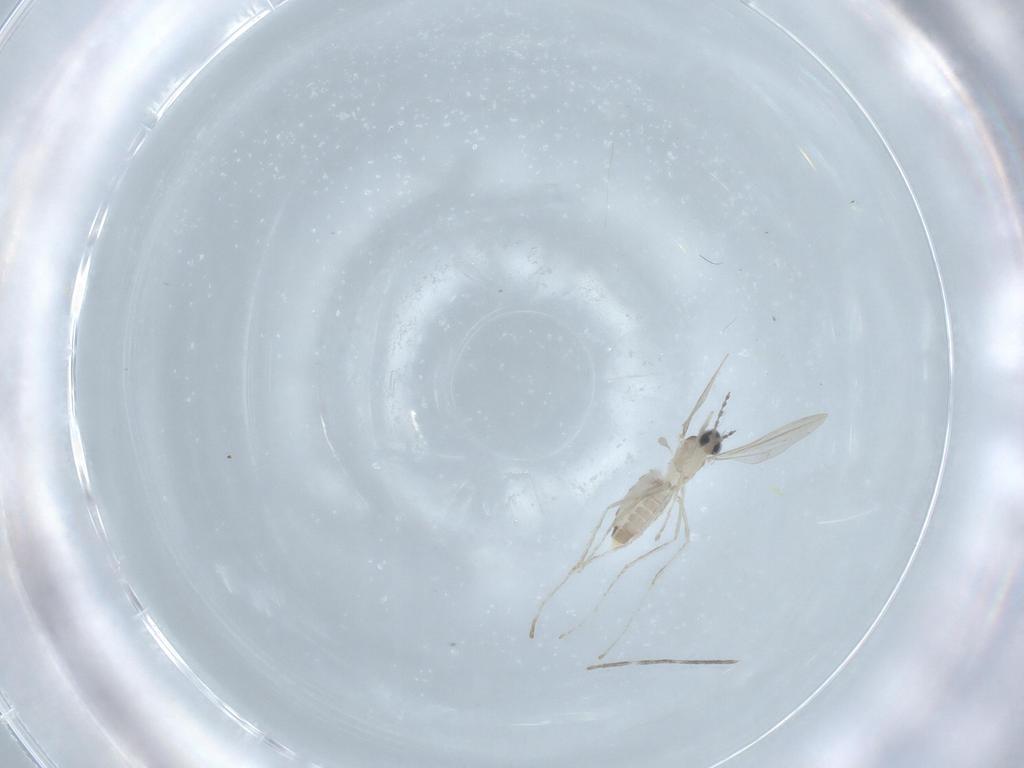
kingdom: Animalia
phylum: Arthropoda
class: Insecta
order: Diptera
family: Cecidomyiidae
